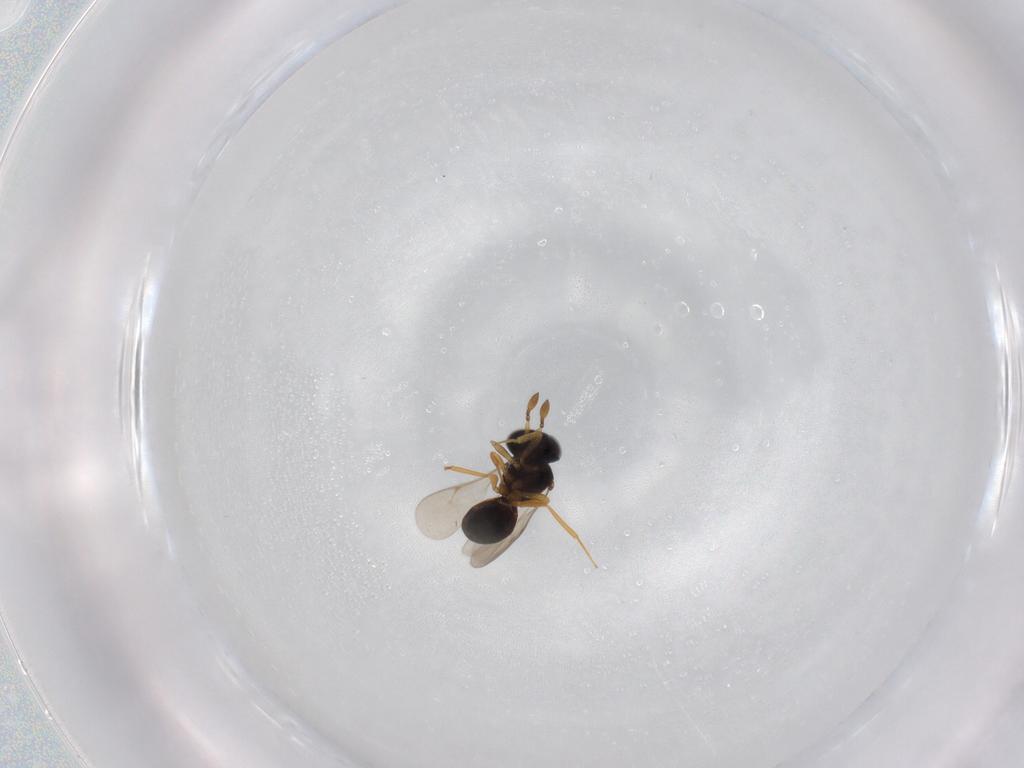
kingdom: Animalia
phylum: Arthropoda
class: Insecta
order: Hymenoptera
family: Scelionidae
